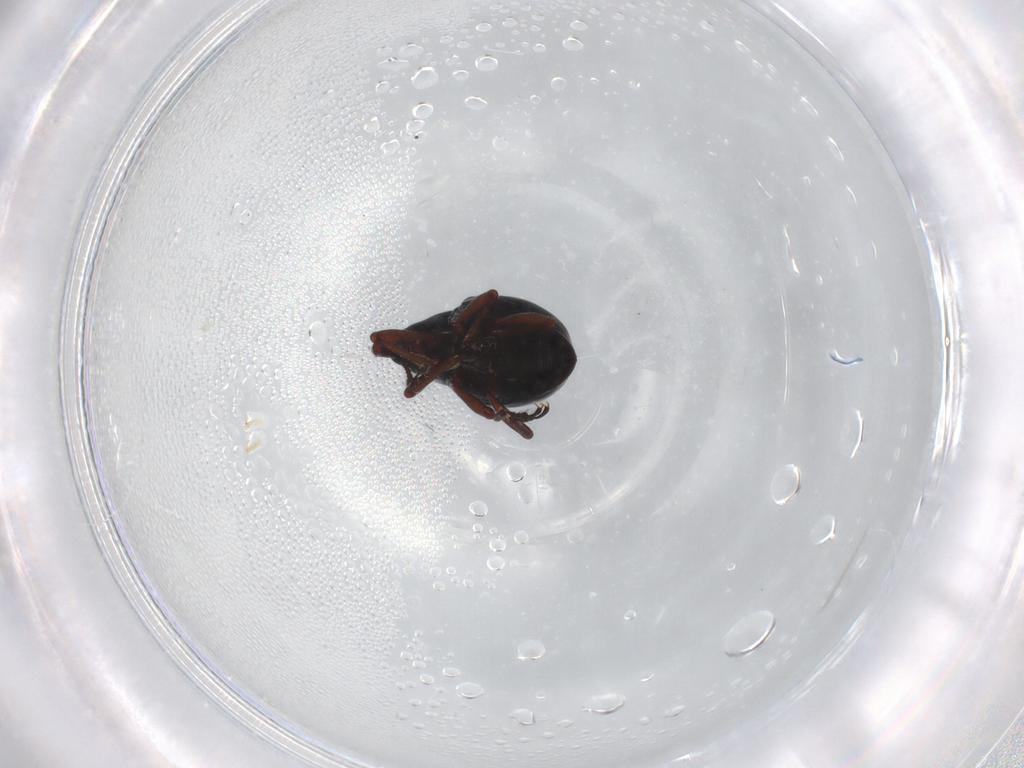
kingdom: Animalia
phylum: Arthropoda
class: Insecta
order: Coleoptera
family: Curculionidae
